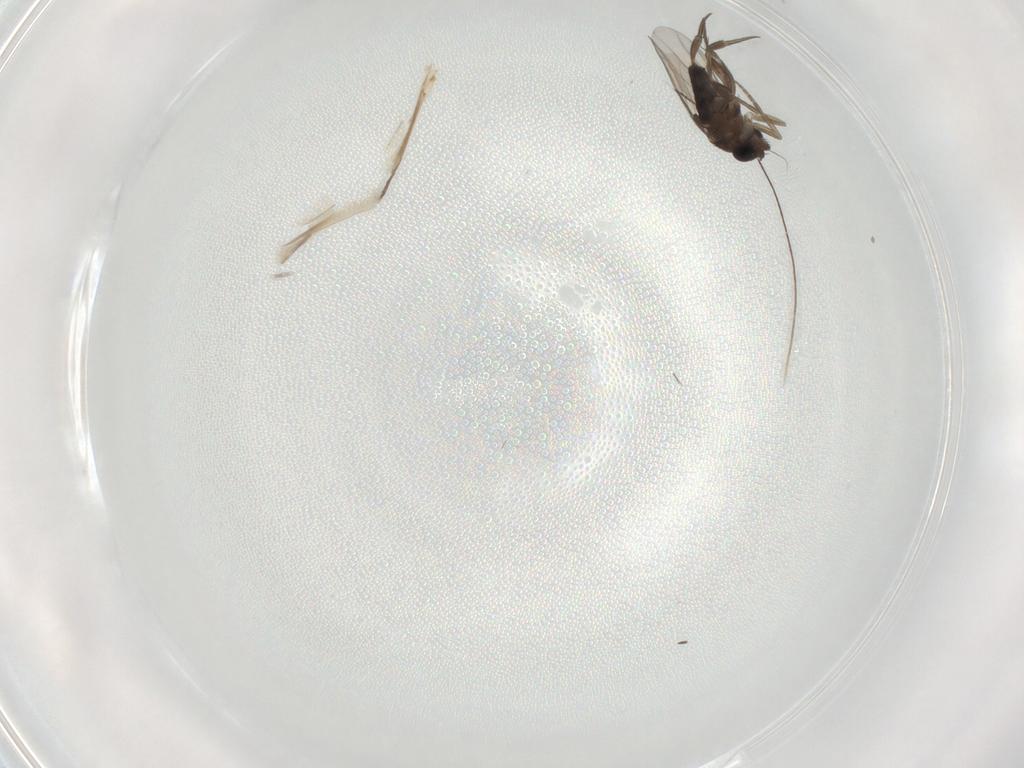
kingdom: Animalia
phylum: Arthropoda
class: Insecta
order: Diptera
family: Phoridae
